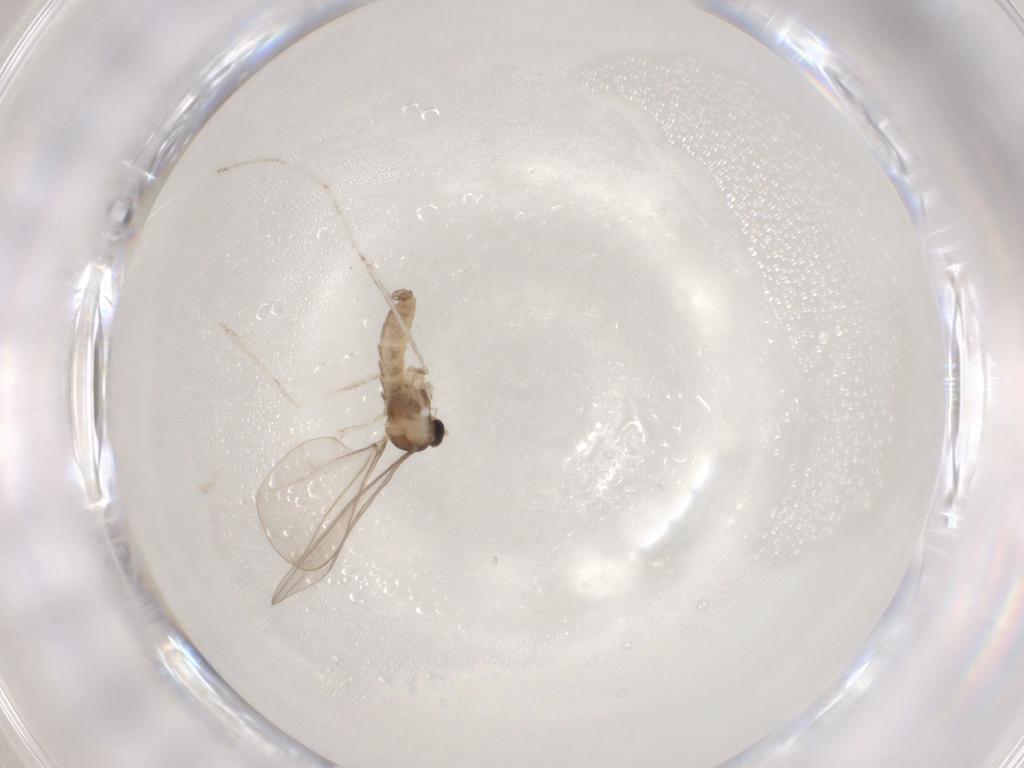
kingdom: Animalia
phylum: Arthropoda
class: Insecta
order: Diptera
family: Cecidomyiidae
